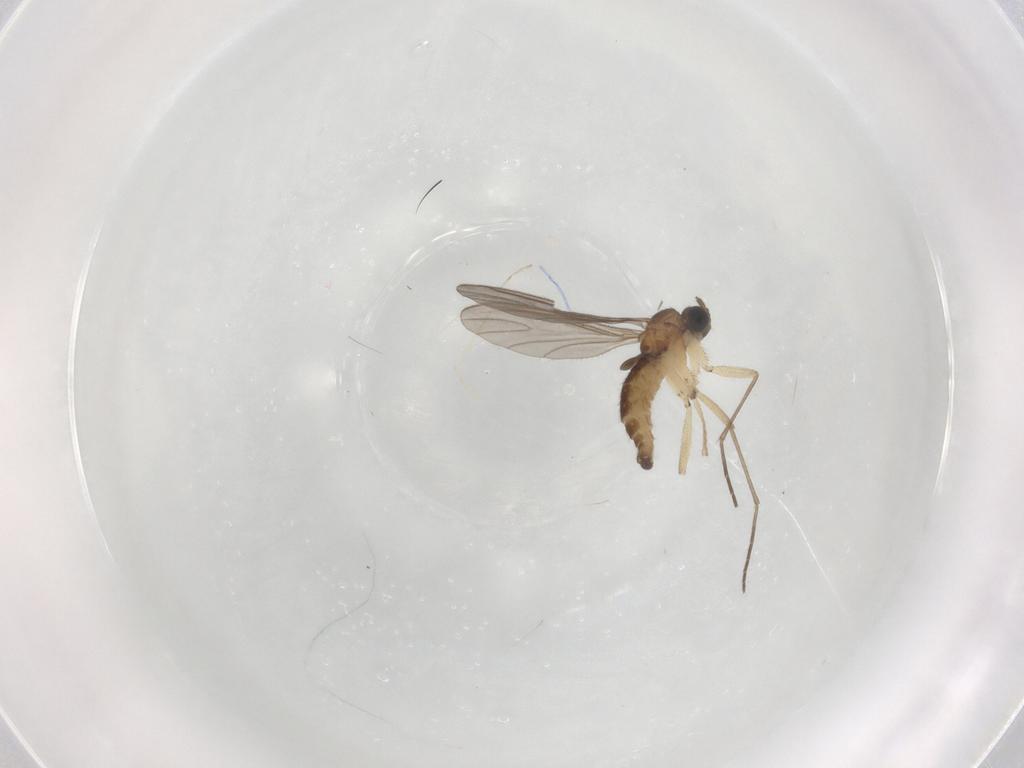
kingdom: Animalia
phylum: Arthropoda
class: Insecta
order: Diptera
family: Cecidomyiidae
